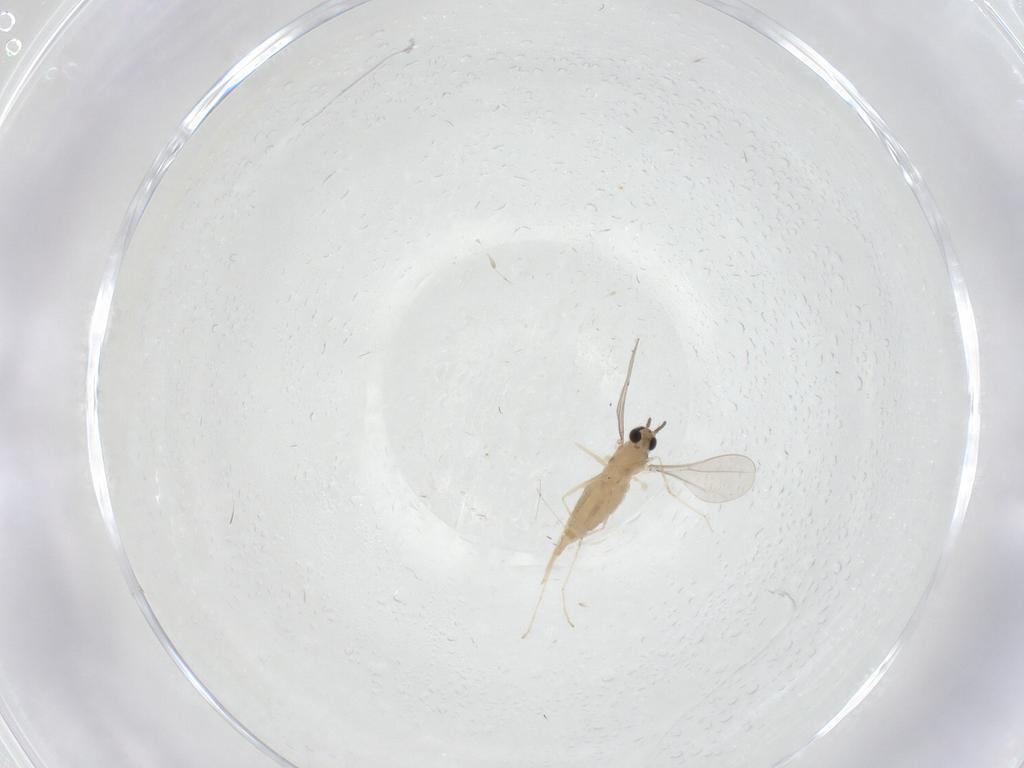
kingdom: Animalia
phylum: Arthropoda
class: Insecta
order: Diptera
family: Limoniidae
